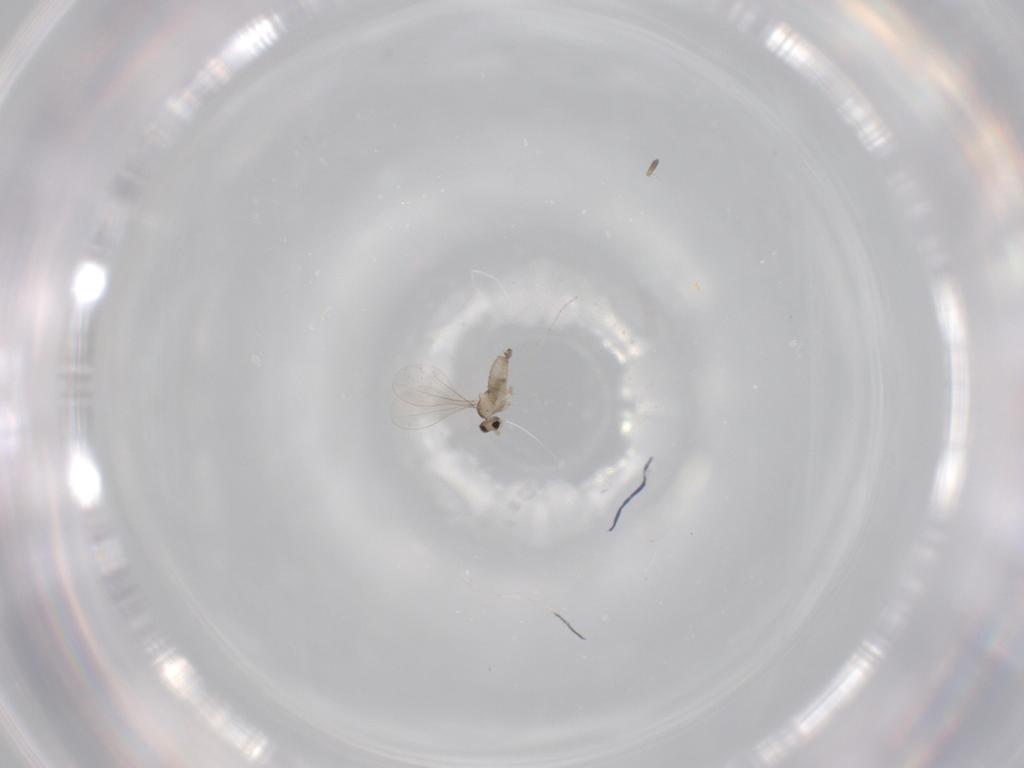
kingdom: Animalia
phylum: Arthropoda
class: Insecta
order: Diptera
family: Cecidomyiidae
